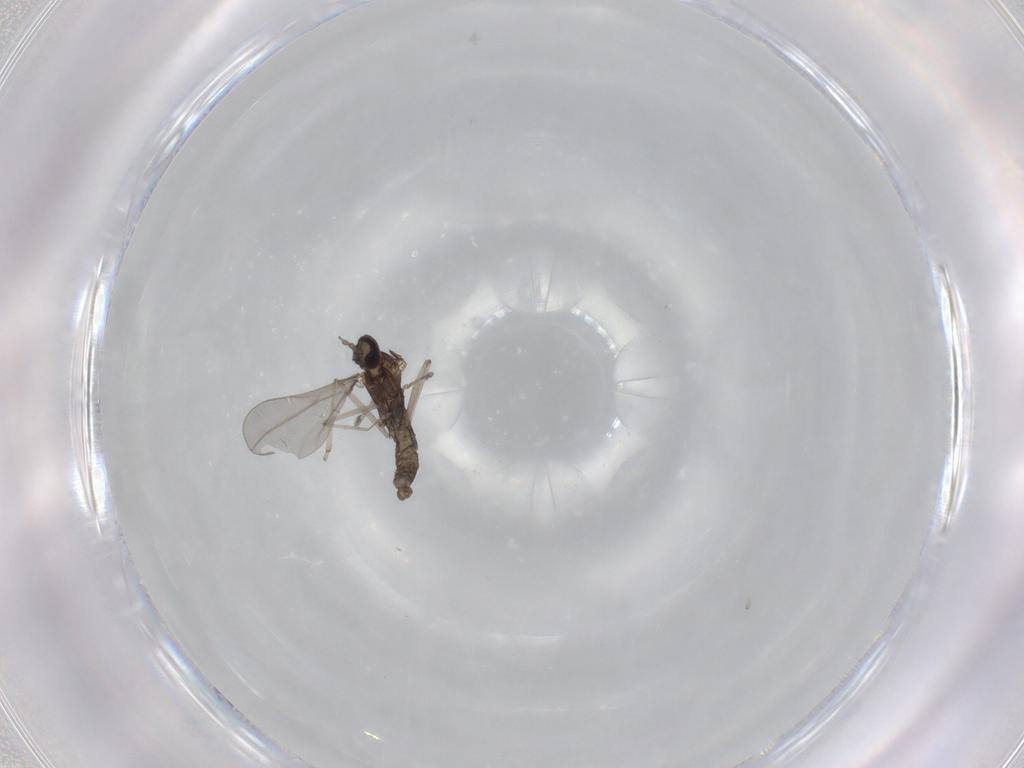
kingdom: Animalia
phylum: Arthropoda
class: Insecta
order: Diptera
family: Cecidomyiidae
